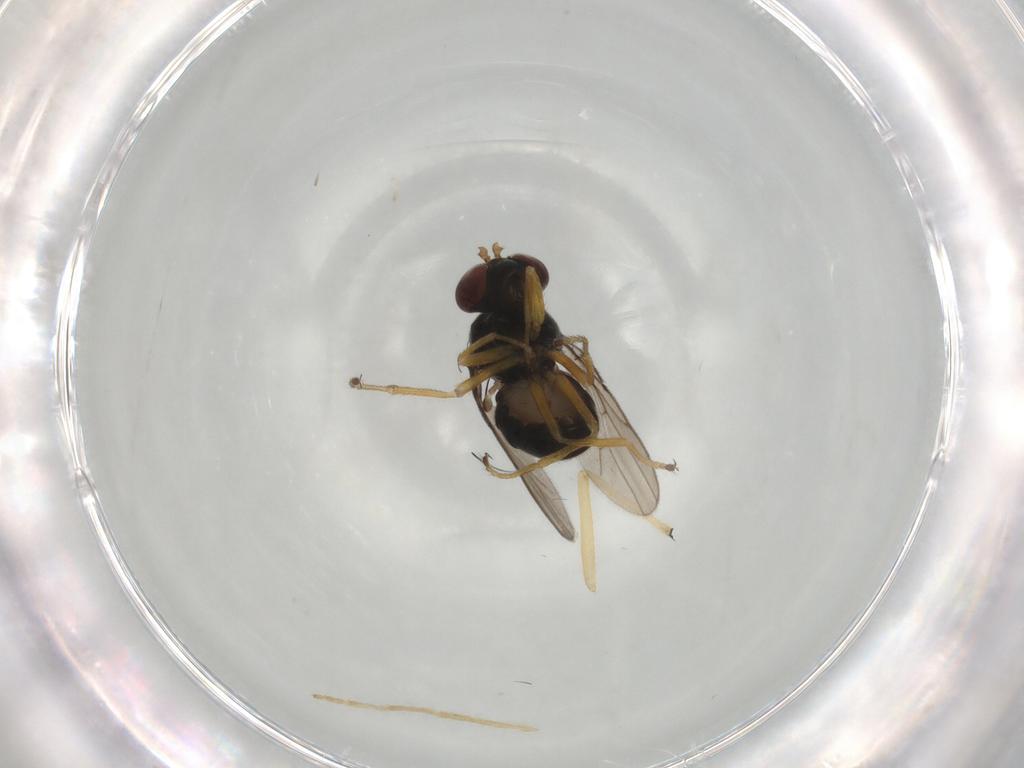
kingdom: Animalia
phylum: Arthropoda
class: Insecta
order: Diptera
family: Ephydridae
